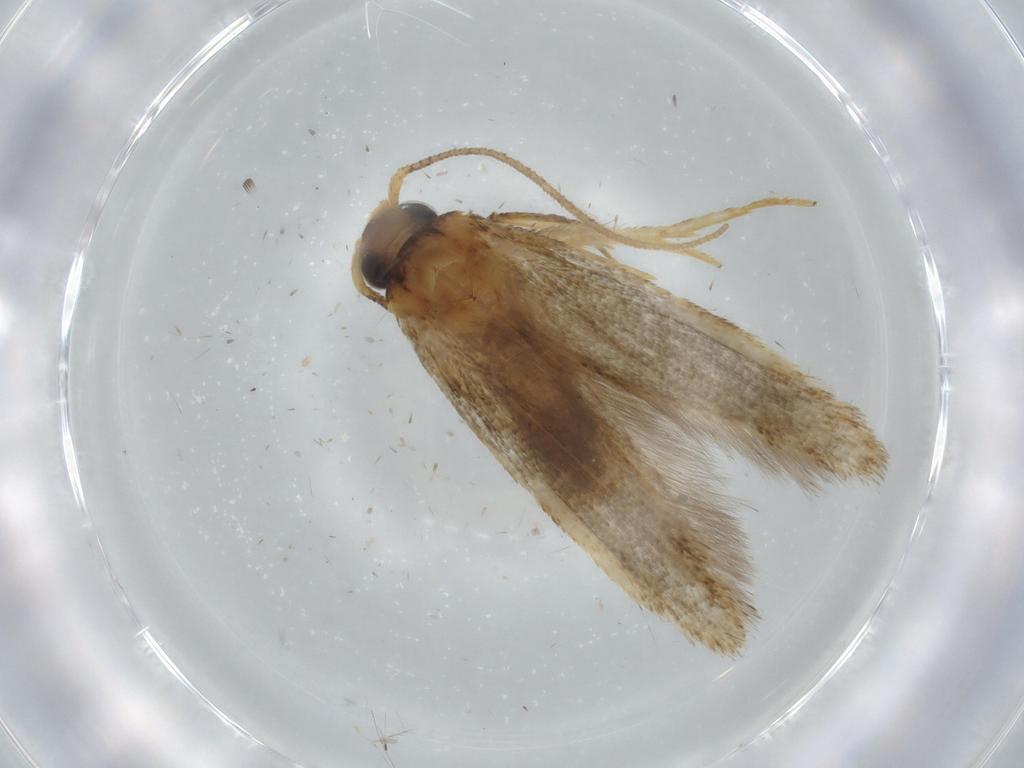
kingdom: Animalia
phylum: Arthropoda
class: Insecta
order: Lepidoptera
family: Tineidae
